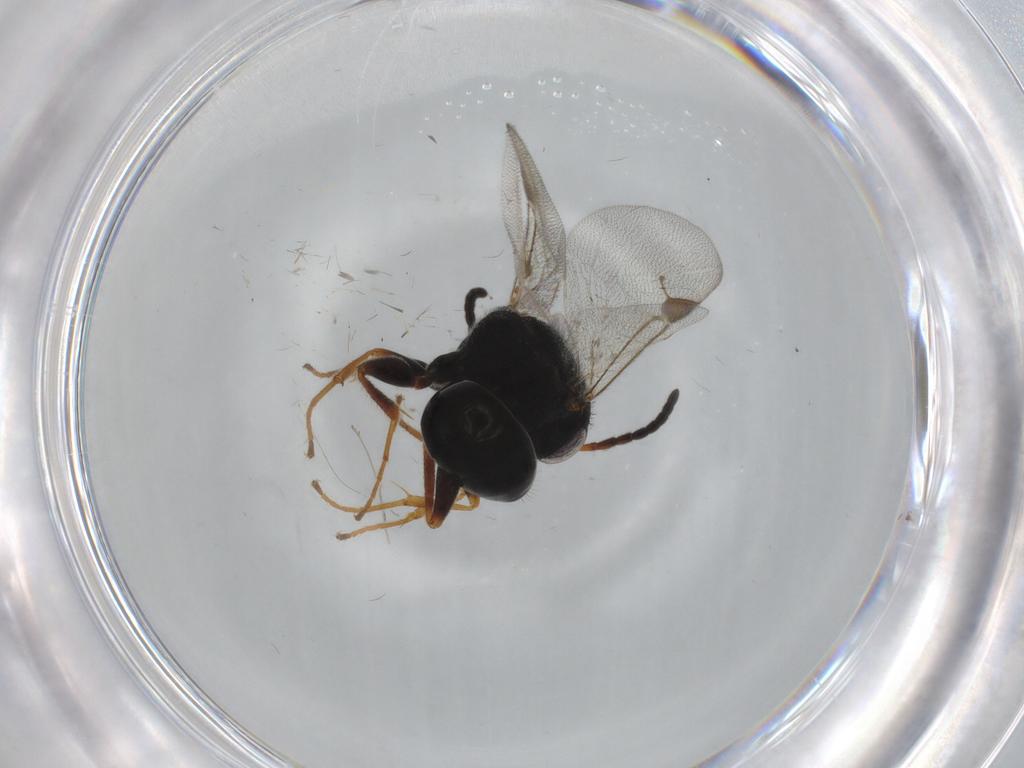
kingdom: Animalia
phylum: Arthropoda
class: Insecta
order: Hymenoptera
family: Dryinidae
